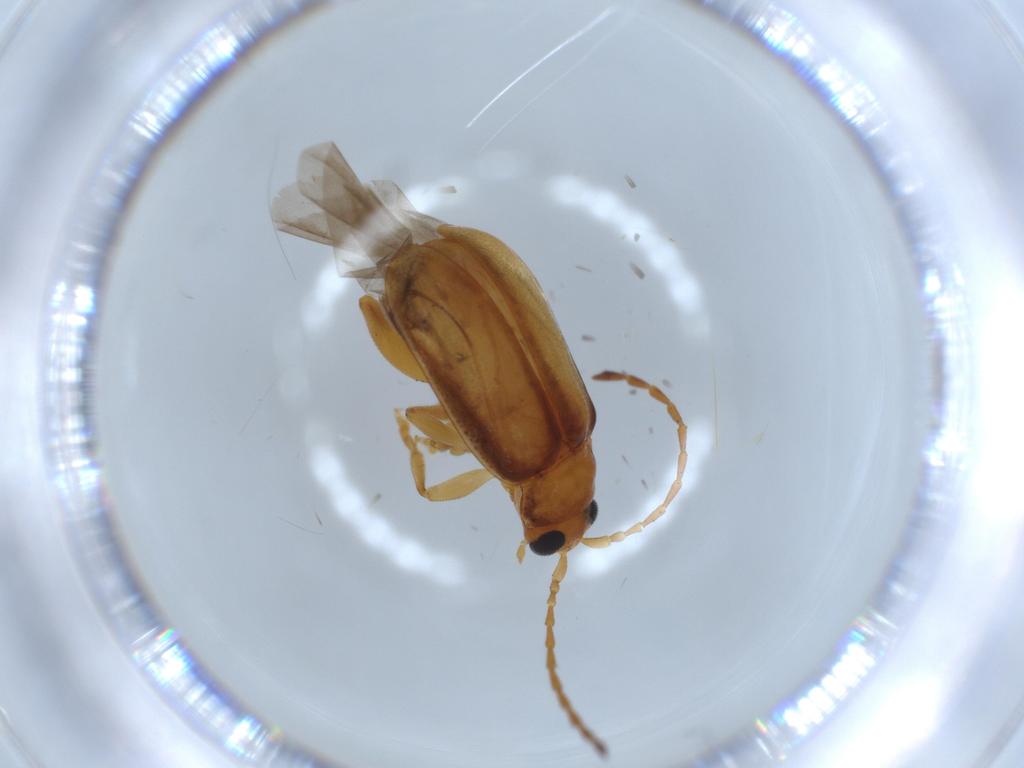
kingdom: Animalia
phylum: Arthropoda
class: Insecta
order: Coleoptera
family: Chrysomelidae
